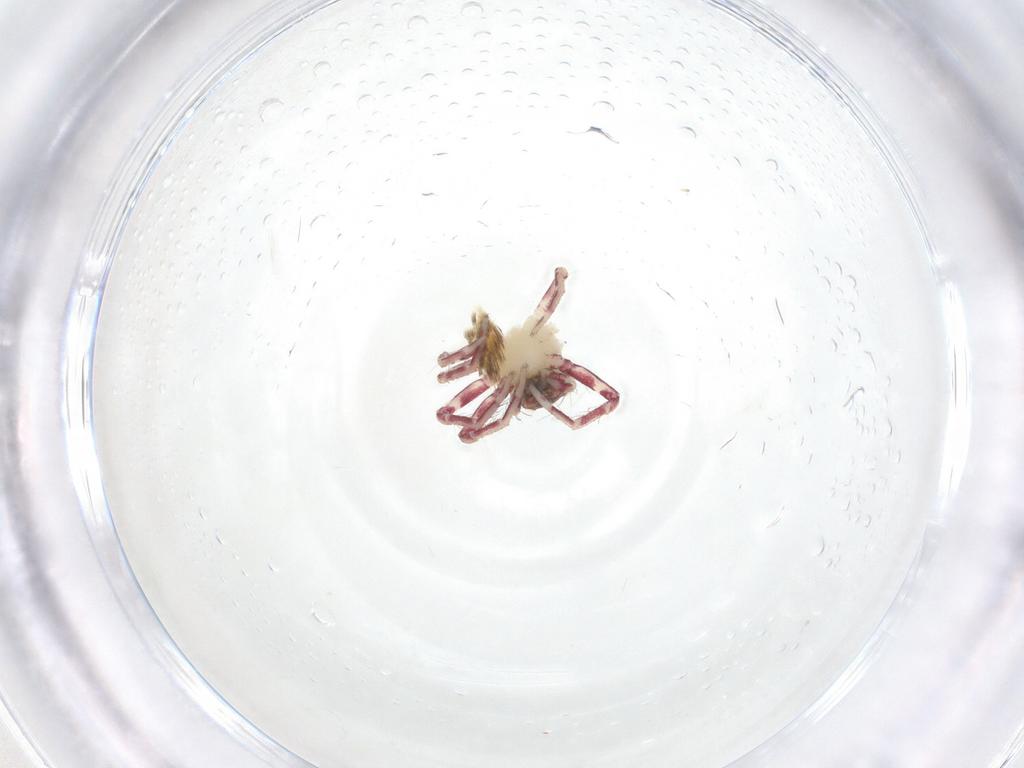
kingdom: Animalia
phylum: Arthropoda
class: Arachnida
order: Araneae
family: Thomisidae
